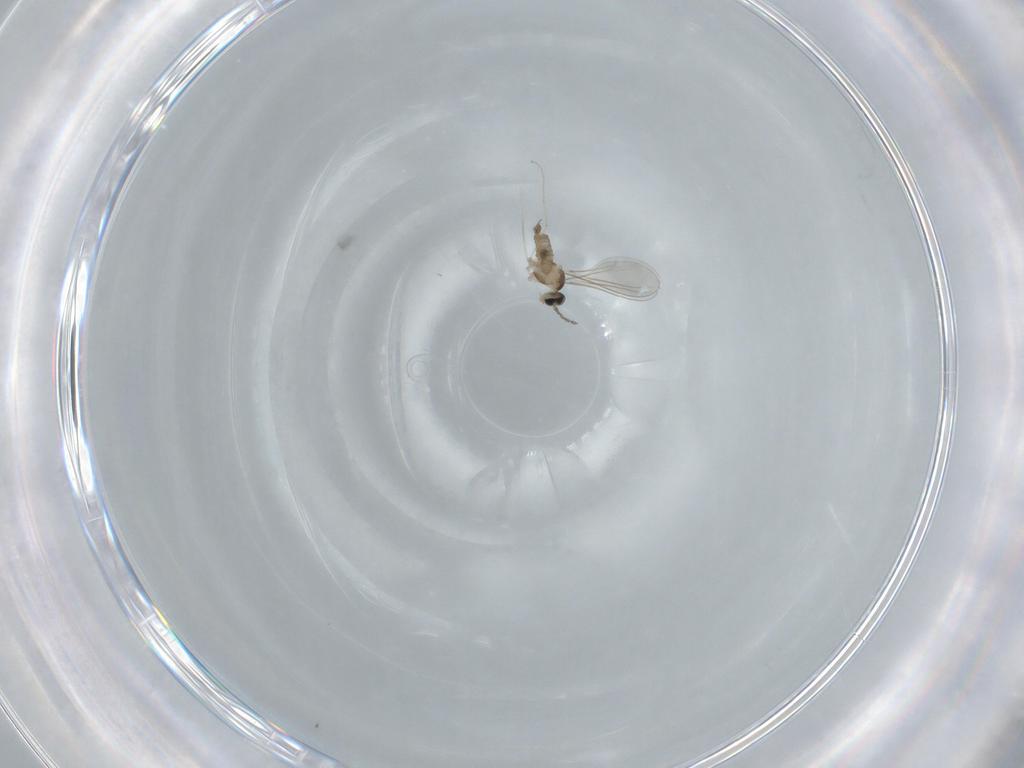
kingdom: Animalia
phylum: Arthropoda
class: Insecta
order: Diptera
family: Cecidomyiidae
